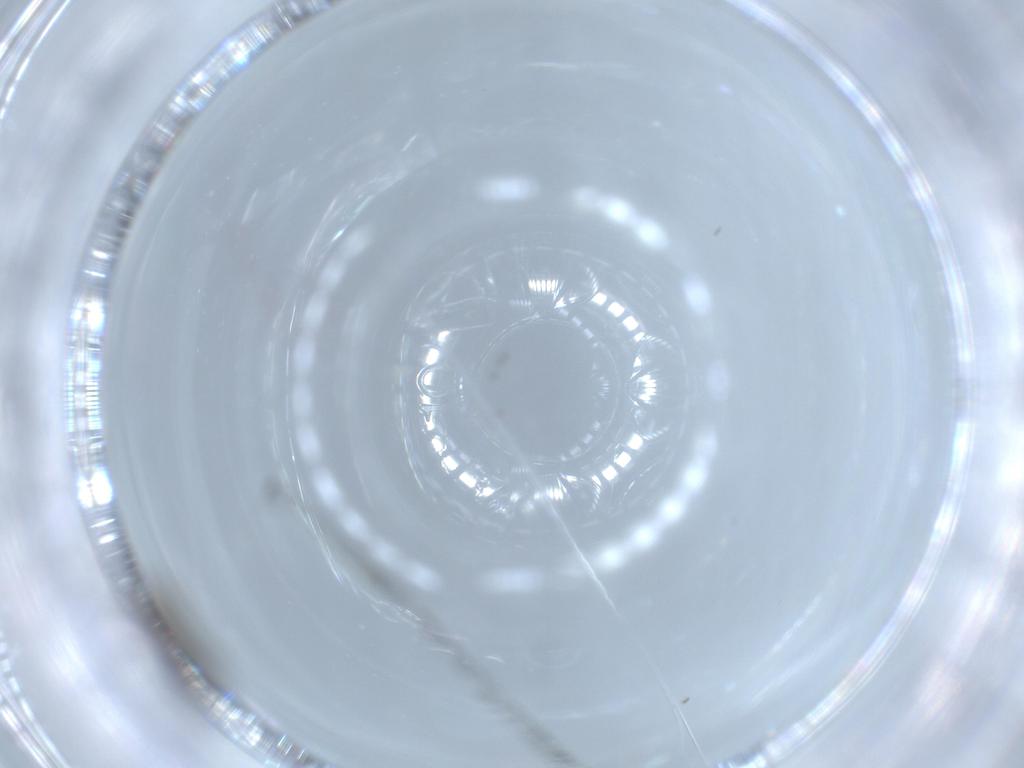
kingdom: Animalia
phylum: Arthropoda
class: Insecta
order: Diptera
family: Psychodidae
